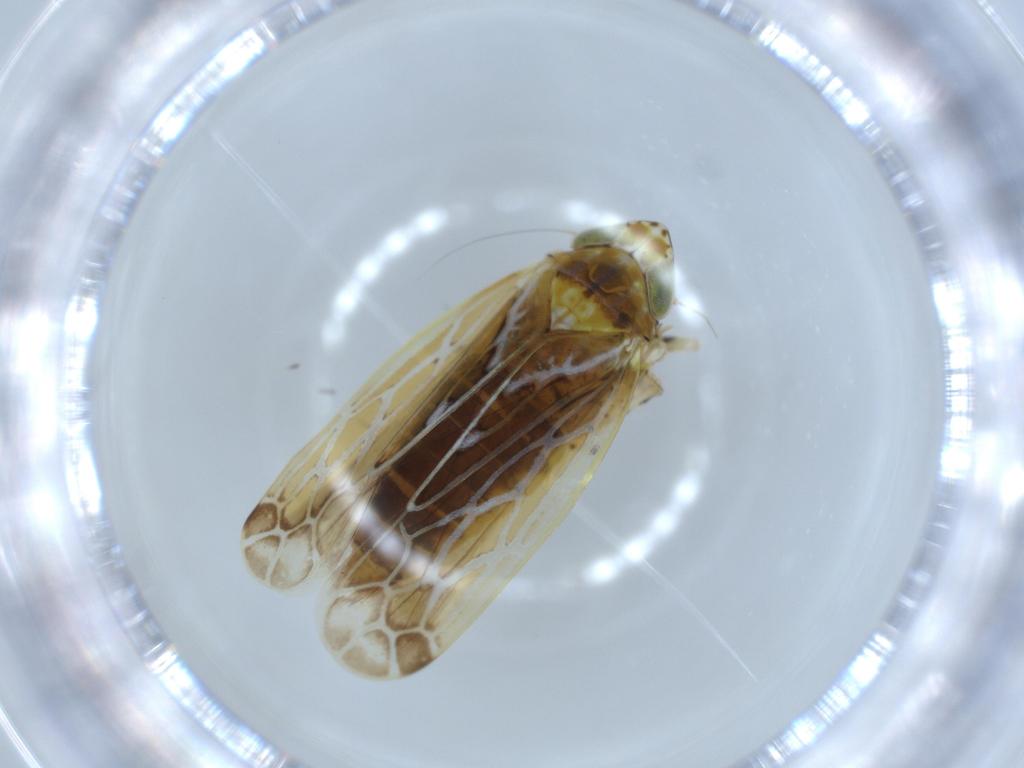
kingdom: Animalia
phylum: Arthropoda
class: Insecta
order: Hemiptera
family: Cicadellidae
